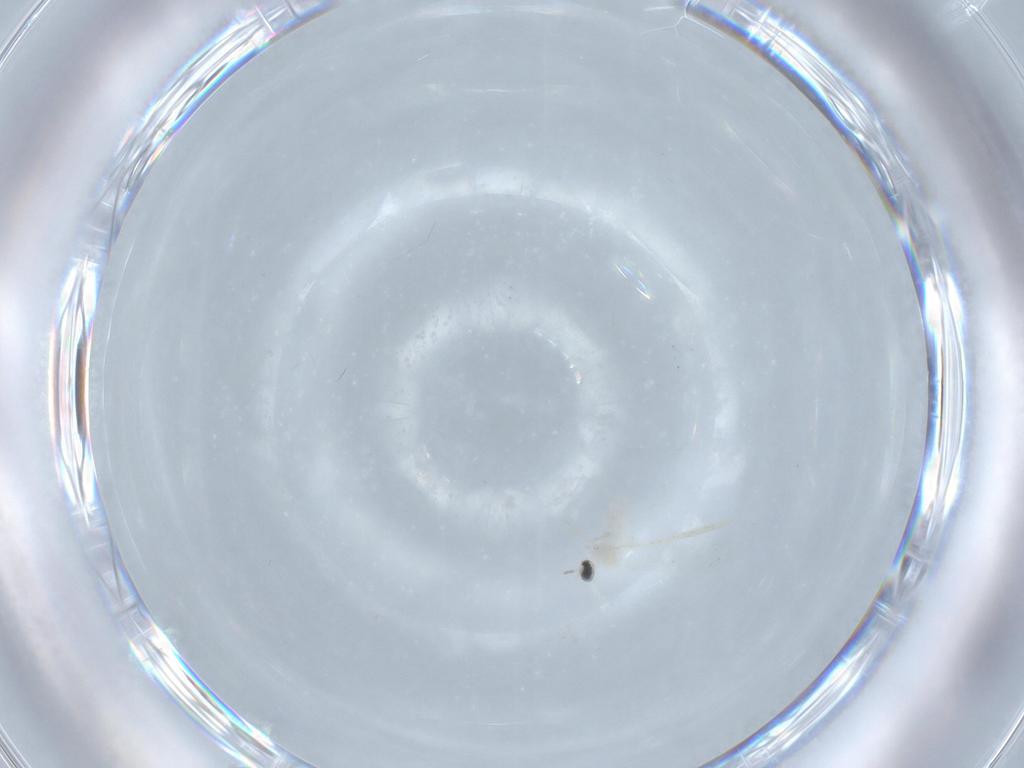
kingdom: Animalia
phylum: Arthropoda
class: Insecta
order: Diptera
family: Cecidomyiidae
